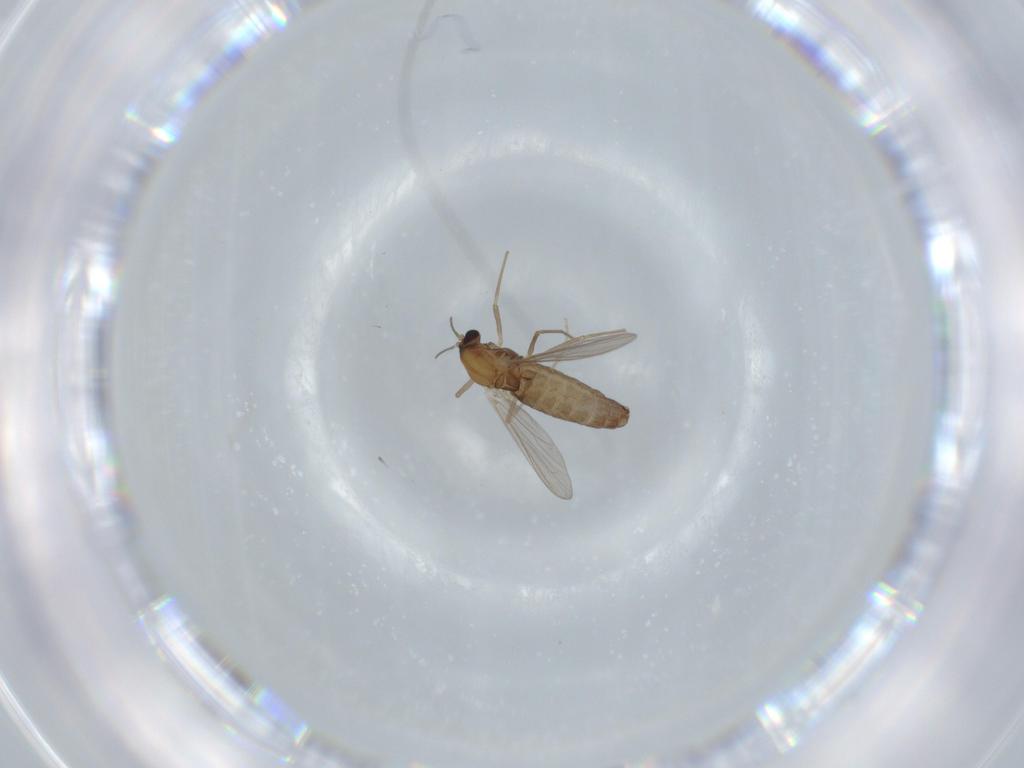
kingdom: Animalia
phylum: Arthropoda
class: Insecta
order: Diptera
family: Chironomidae
